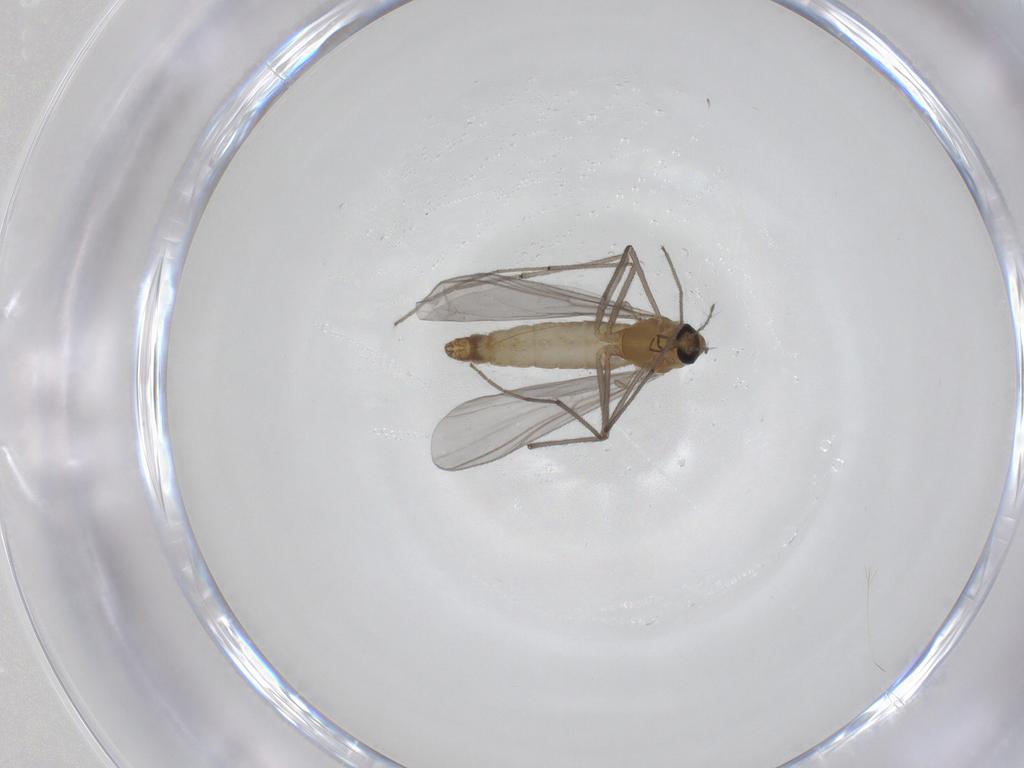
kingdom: Animalia
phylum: Arthropoda
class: Insecta
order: Diptera
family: Chironomidae
